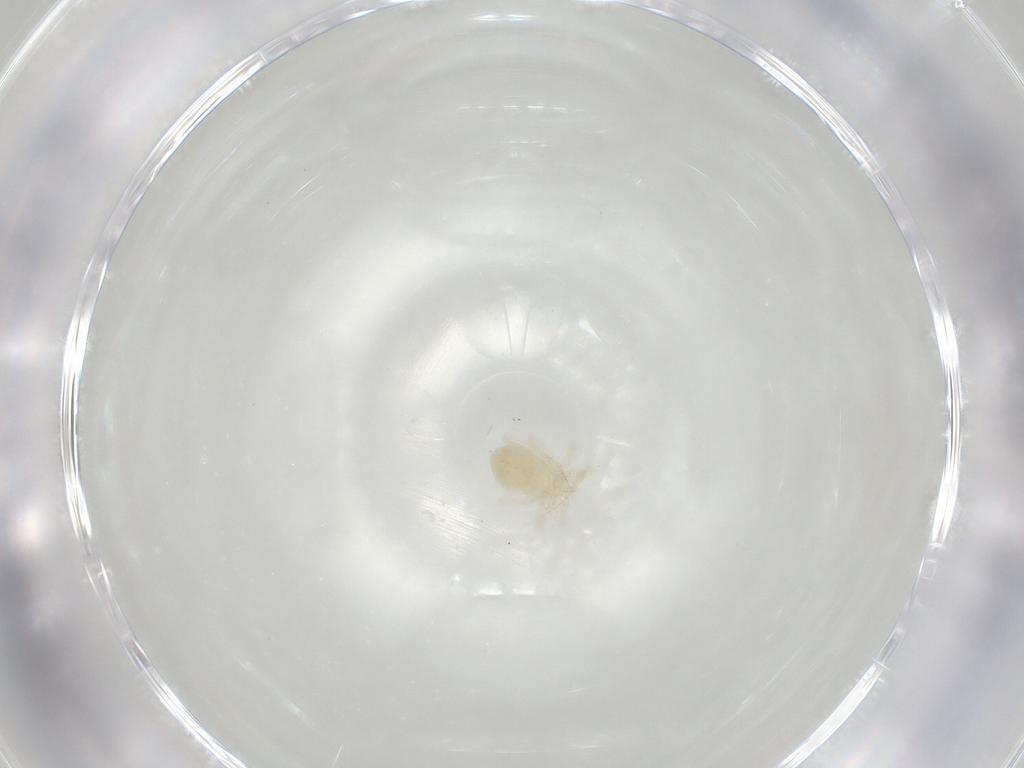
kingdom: Animalia
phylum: Arthropoda
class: Arachnida
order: Trombidiformes
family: Anystidae
